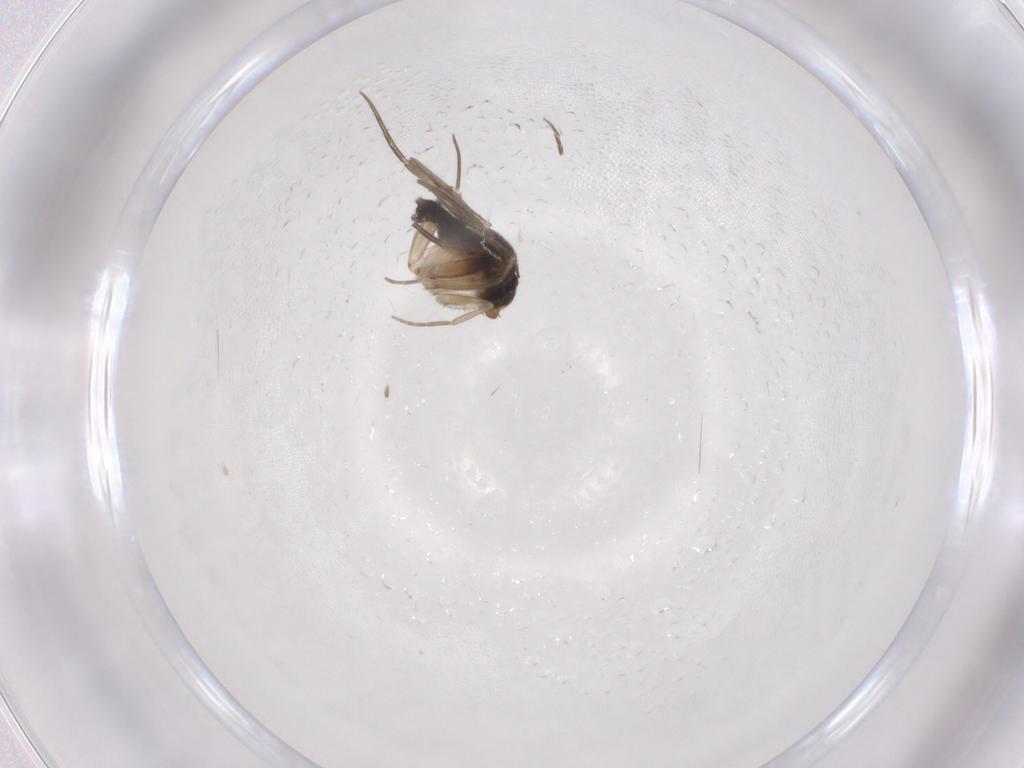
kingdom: Animalia
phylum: Arthropoda
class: Insecta
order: Diptera
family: Phoridae
